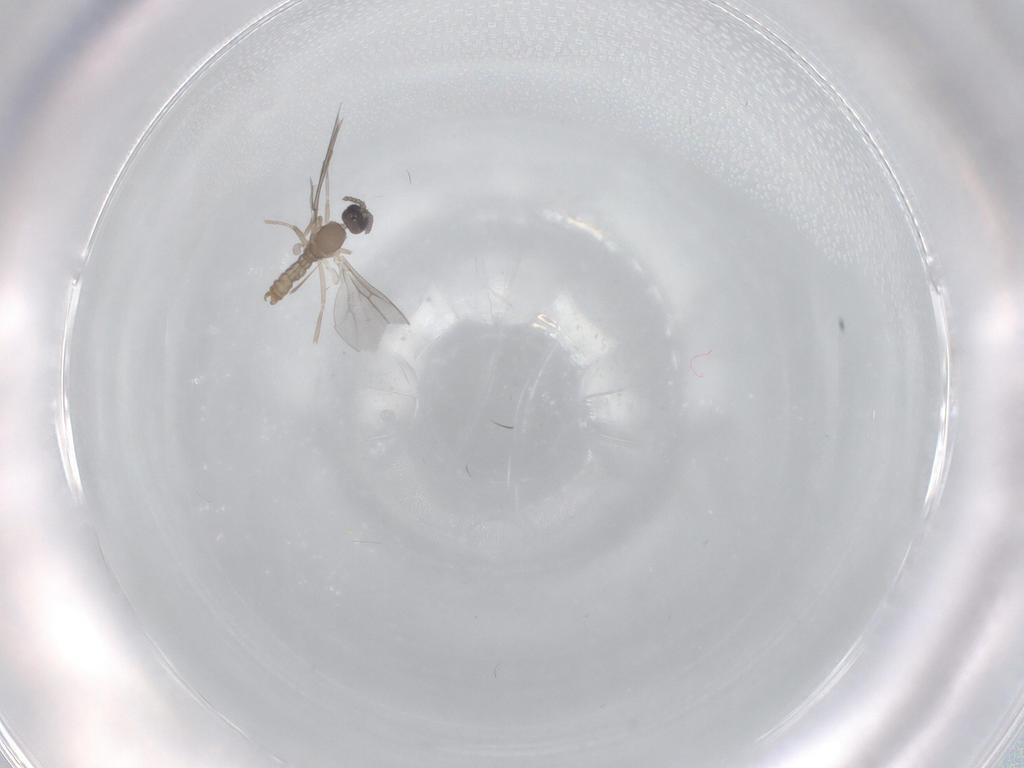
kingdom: Animalia
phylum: Arthropoda
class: Insecta
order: Diptera
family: Cecidomyiidae
